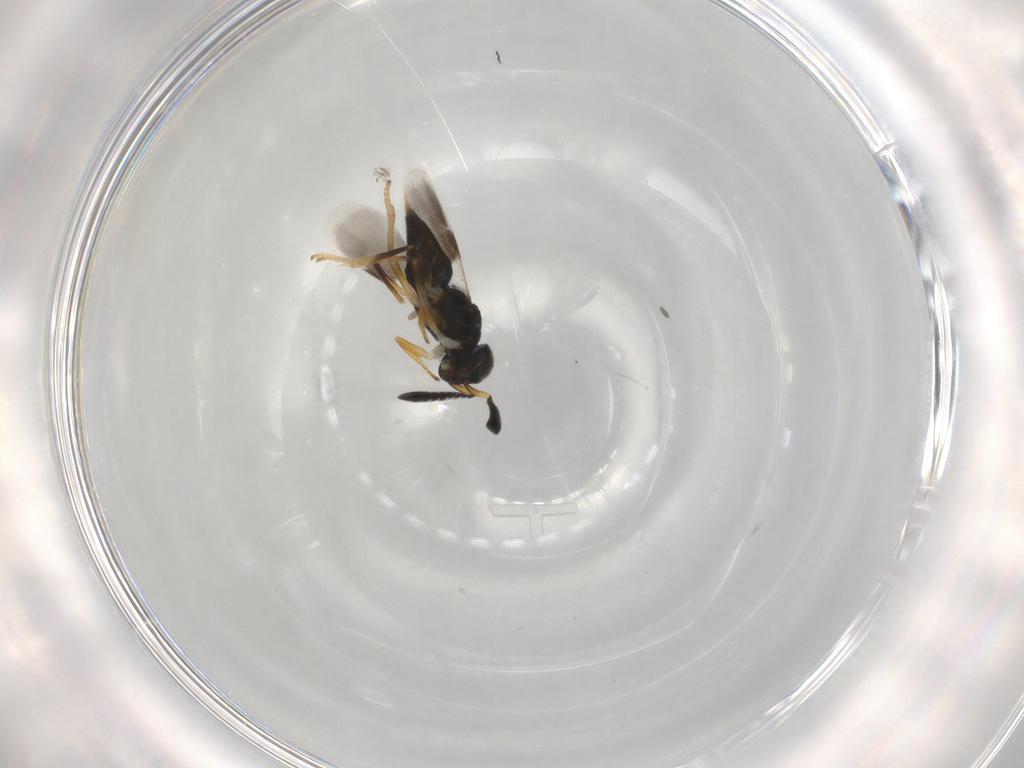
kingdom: Animalia
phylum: Arthropoda
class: Insecta
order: Hymenoptera
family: Encyrtidae
